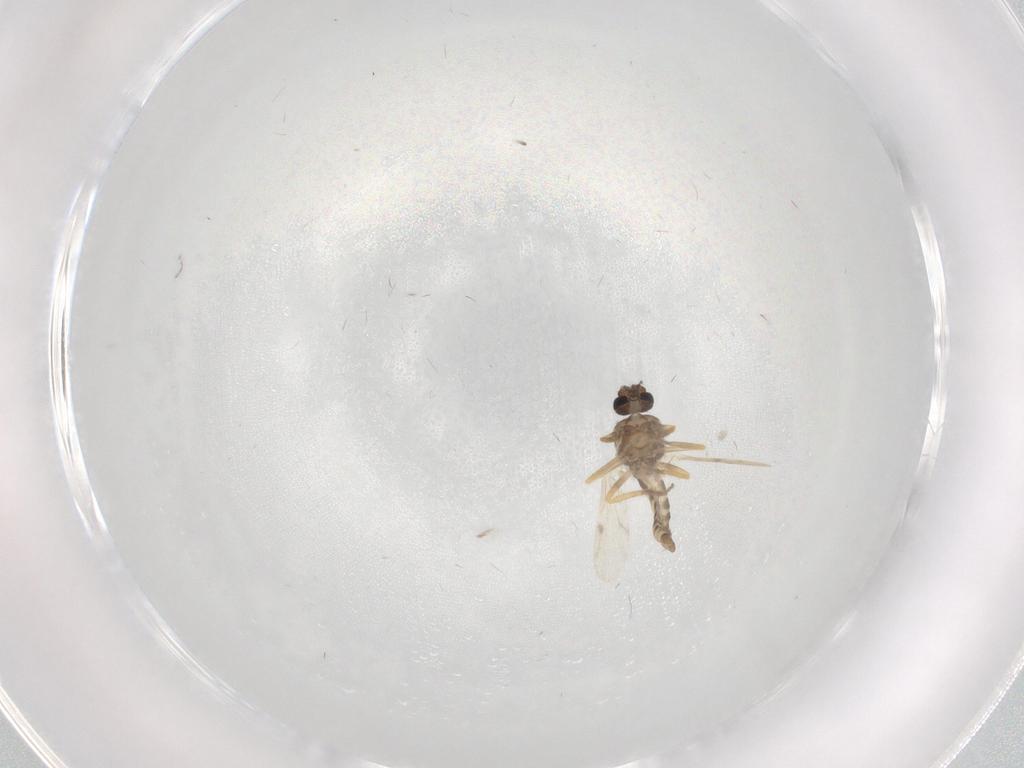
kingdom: Animalia
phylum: Arthropoda
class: Insecta
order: Diptera
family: Ceratopogonidae
